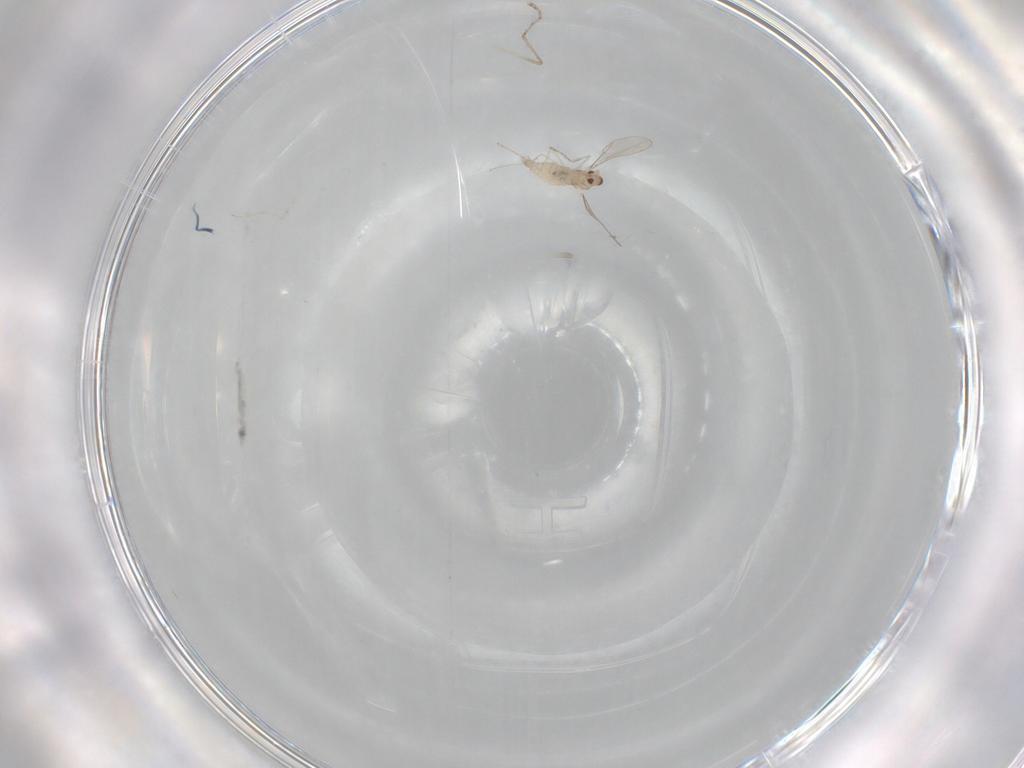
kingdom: Animalia
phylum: Arthropoda
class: Insecta
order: Diptera
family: Cecidomyiidae
